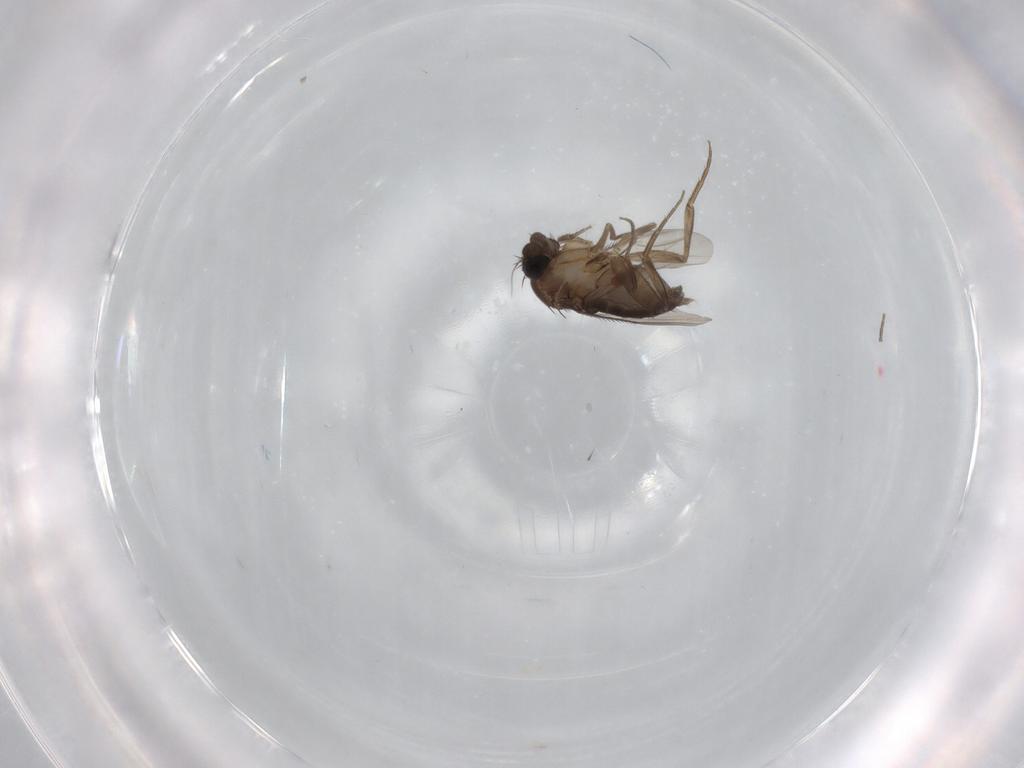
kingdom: Animalia
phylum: Arthropoda
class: Insecta
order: Diptera
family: Phoridae
